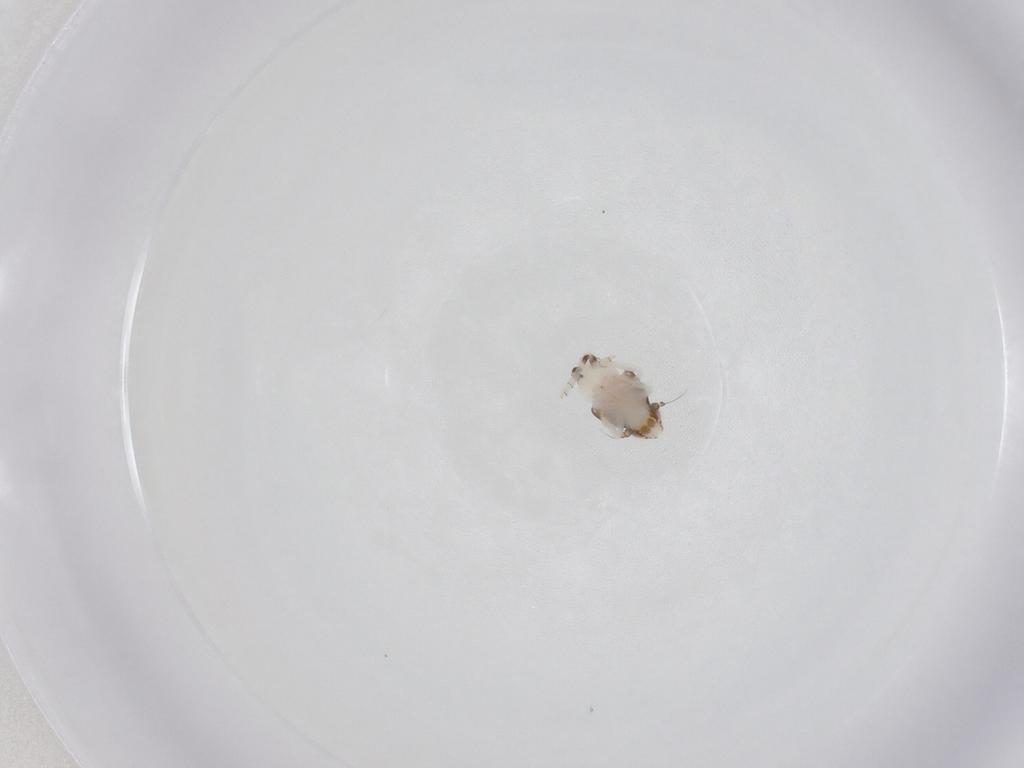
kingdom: Animalia
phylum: Arthropoda
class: Insecta
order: Hemiptera
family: Nogodinidae
